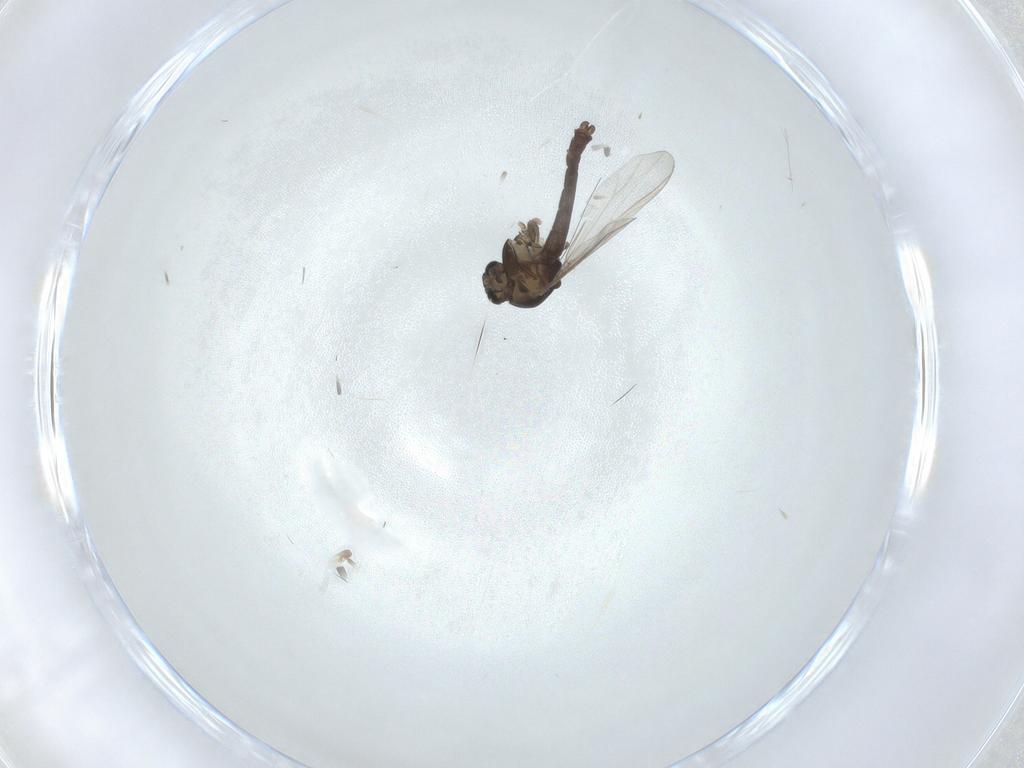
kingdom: Animalia
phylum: Arthropoda
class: Insecta
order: Diptera
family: Chironomidae
